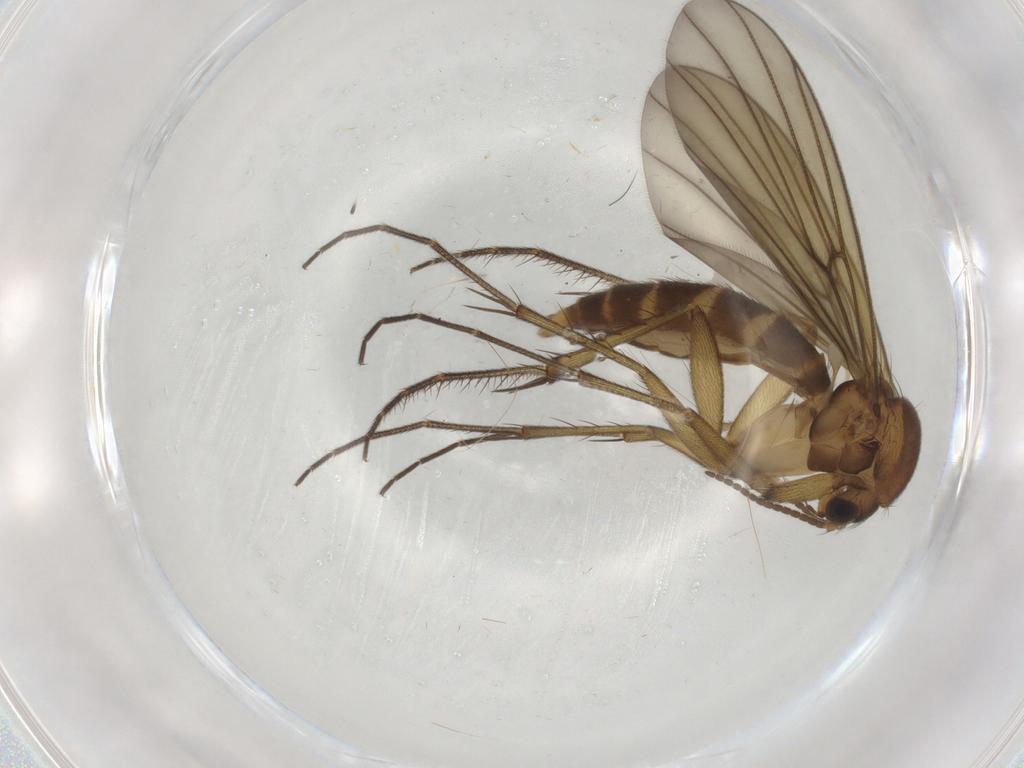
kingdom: Animalia
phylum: Arthropoda
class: Insecta
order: Diptera
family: Mycetophilidae
